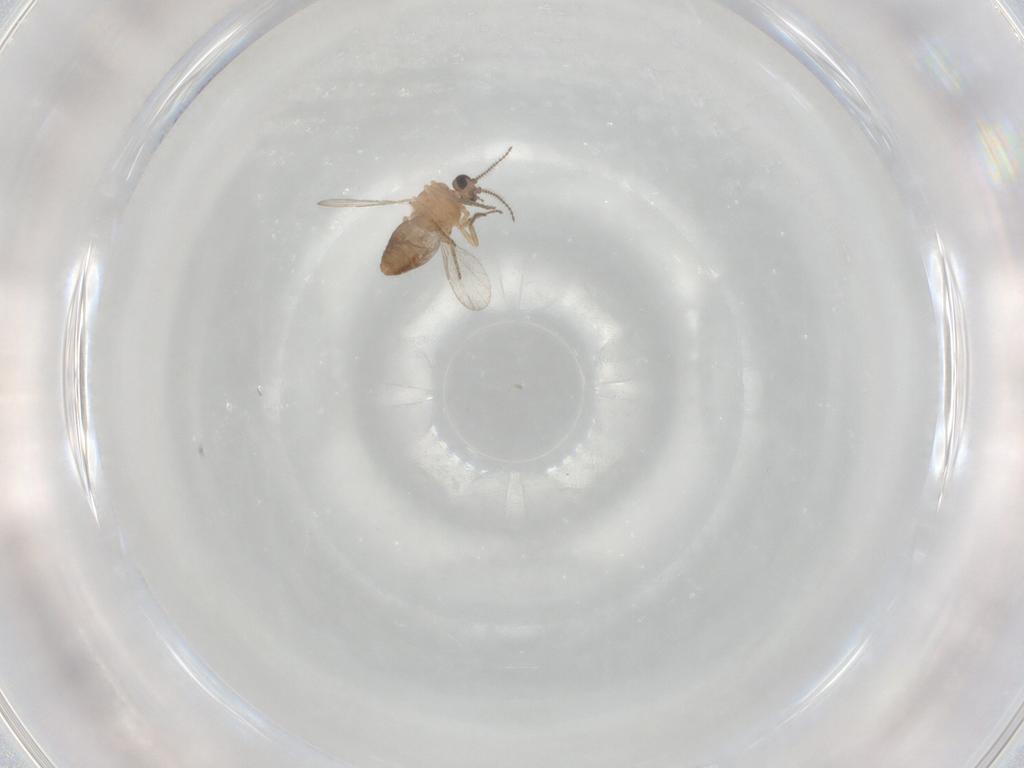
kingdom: Animalia
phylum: Arthropoda
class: Insecta
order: Diptera
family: Ceratopogonidae
